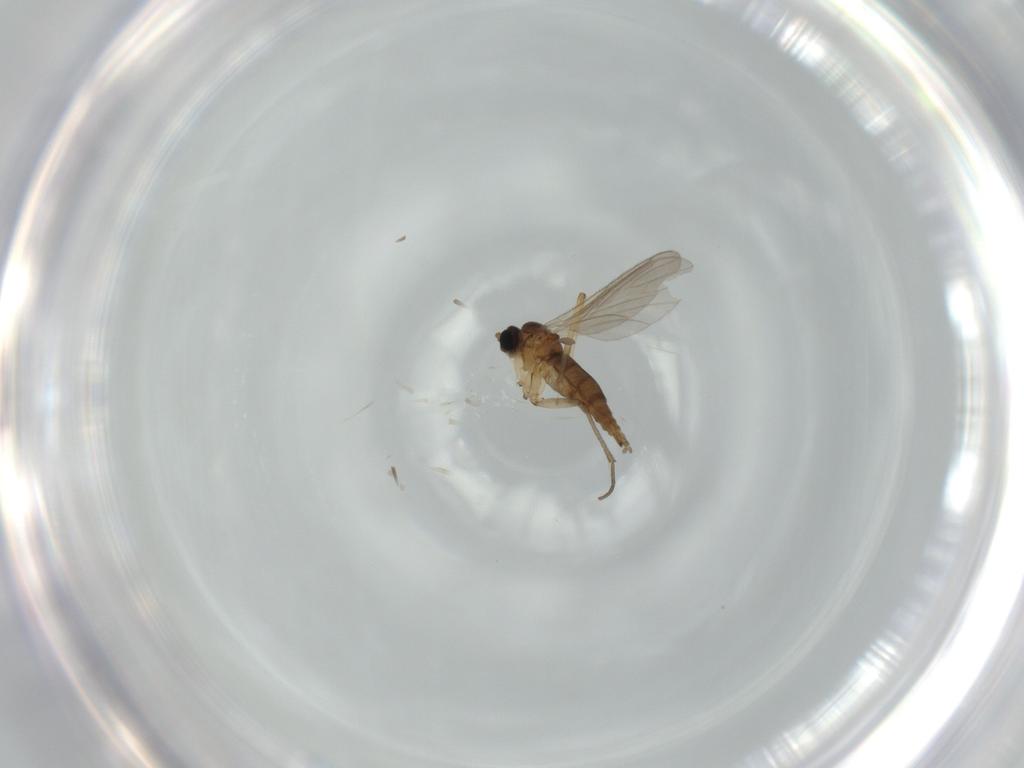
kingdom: Animalia
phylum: Arthropoda
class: Insecta
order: Diptera
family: Sciaridae
